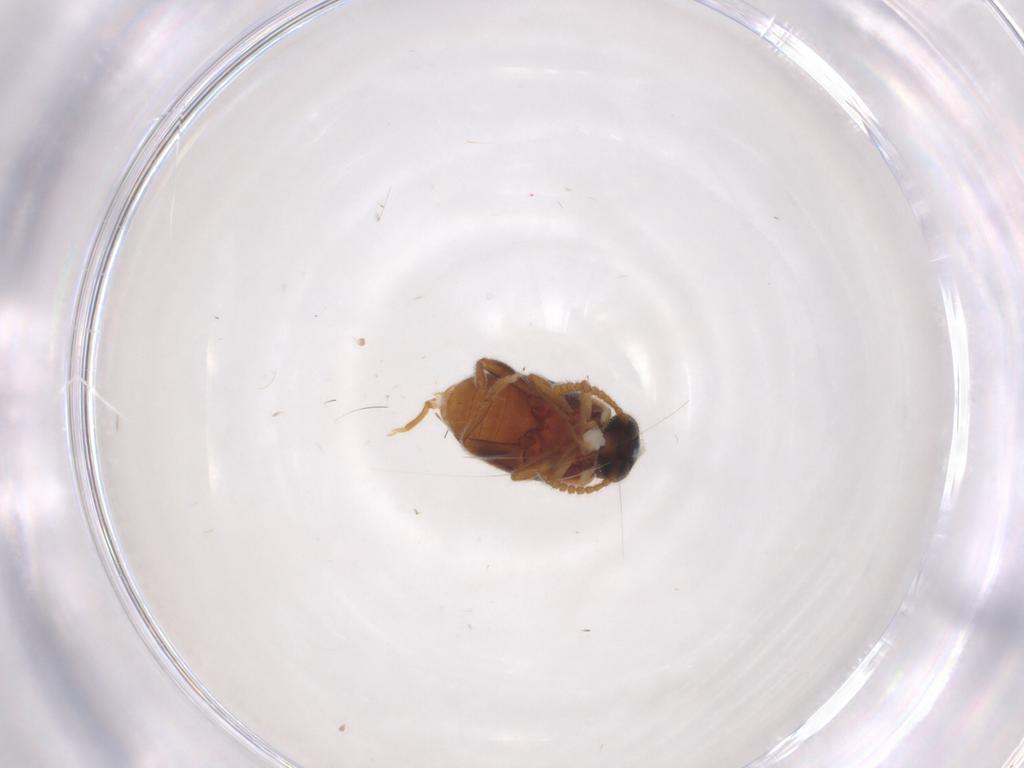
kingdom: Animalia
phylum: Arthropoda
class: Insecta
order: Coleoptera
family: Aderidae
